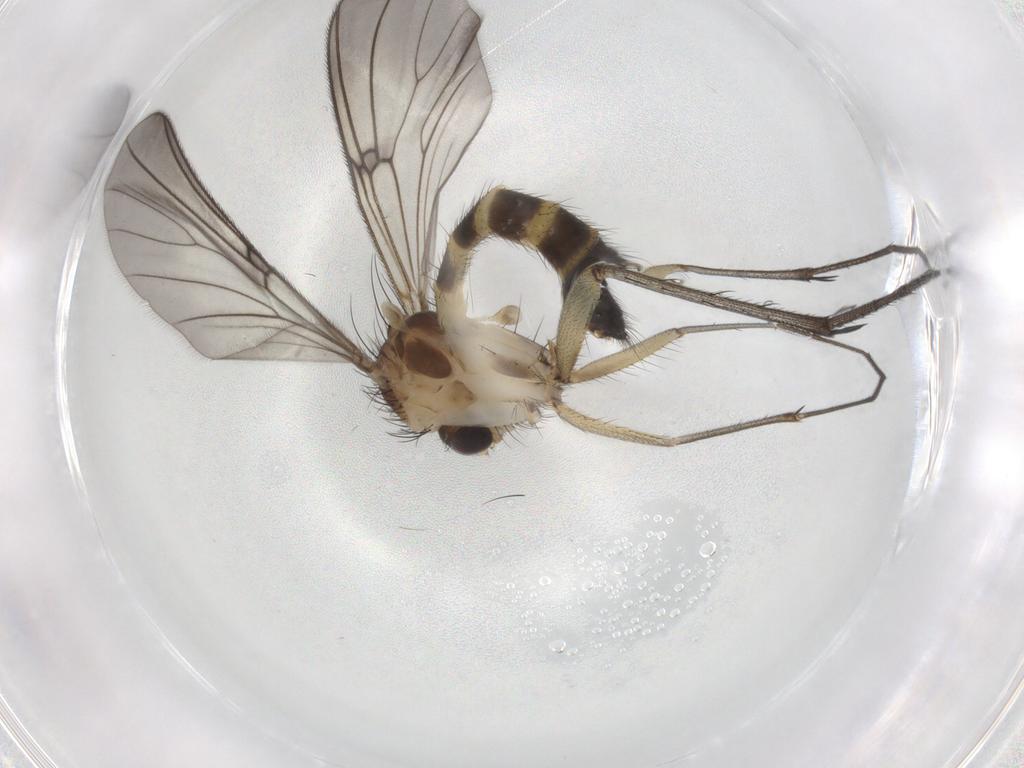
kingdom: Animalia
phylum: Arthropoda
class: Insecta
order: Diptera
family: Mycetophilidae
